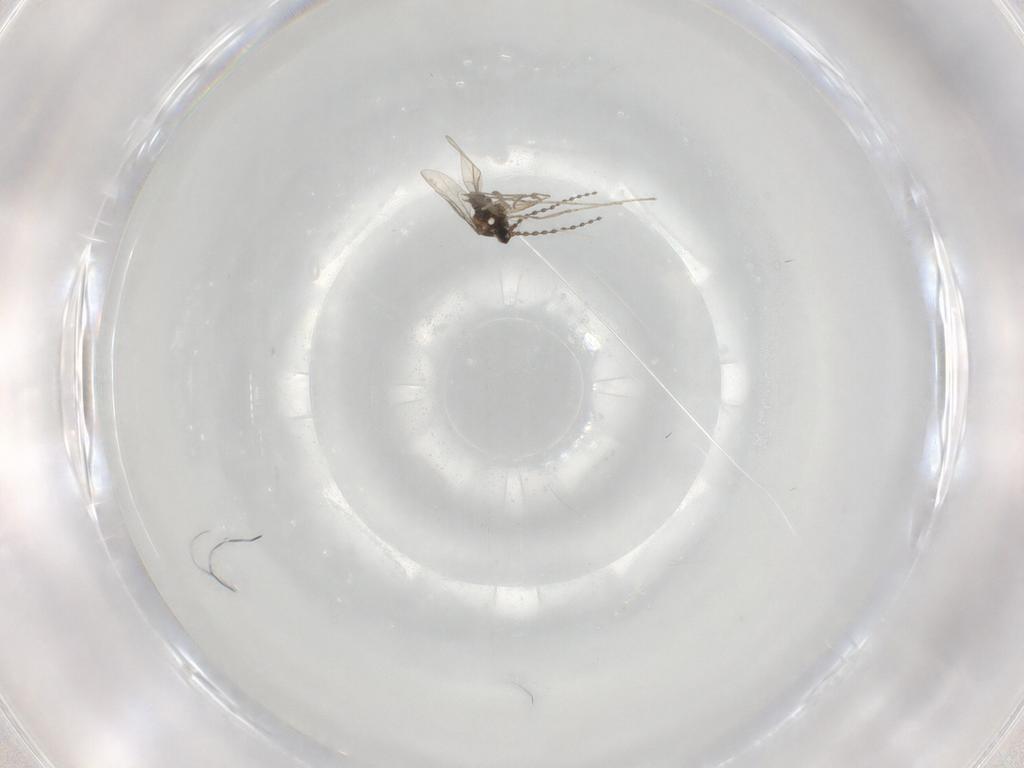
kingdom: Animalia
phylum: Arthropoda
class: Insecta
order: Diptera
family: Cecidomyiidae
